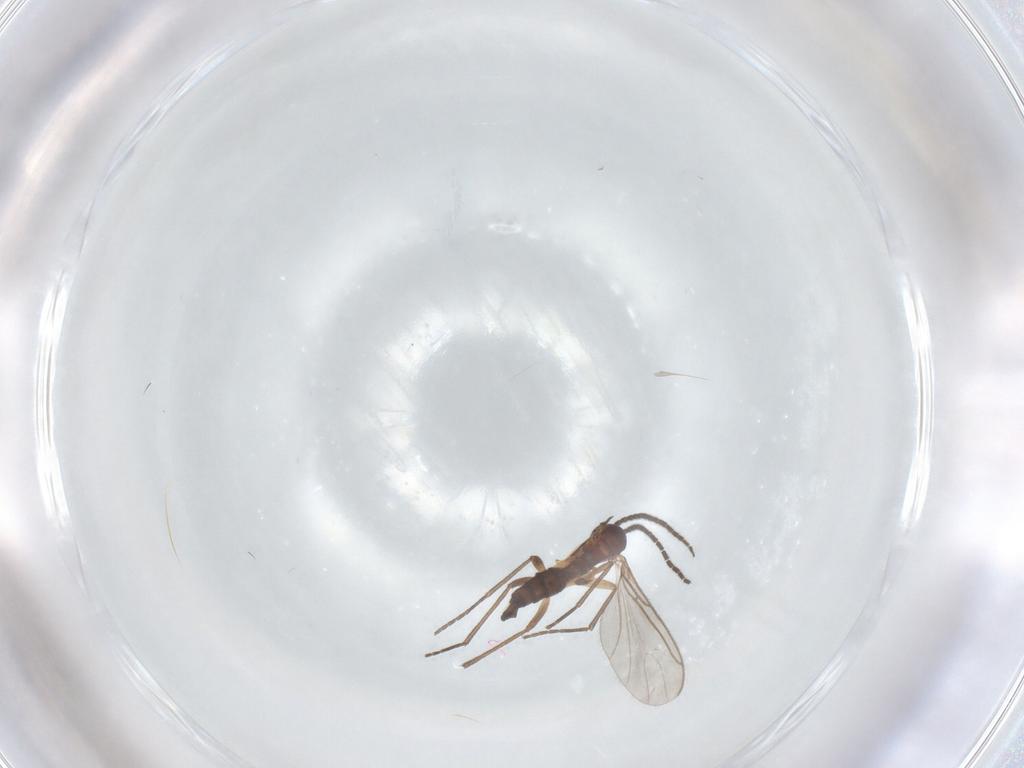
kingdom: Animalia
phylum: Arthropoda
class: Insecta
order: Diptera
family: Sciaridae
